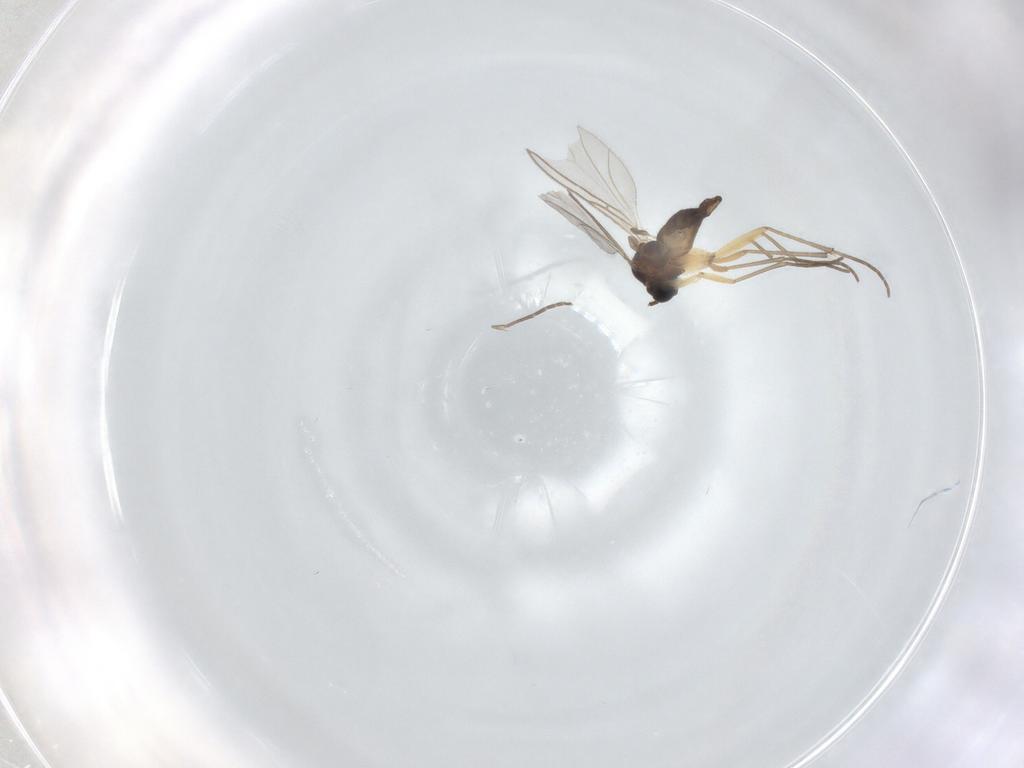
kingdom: Animalia
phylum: Arthropoda
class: Insecta
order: Diptera
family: Sciaridae
